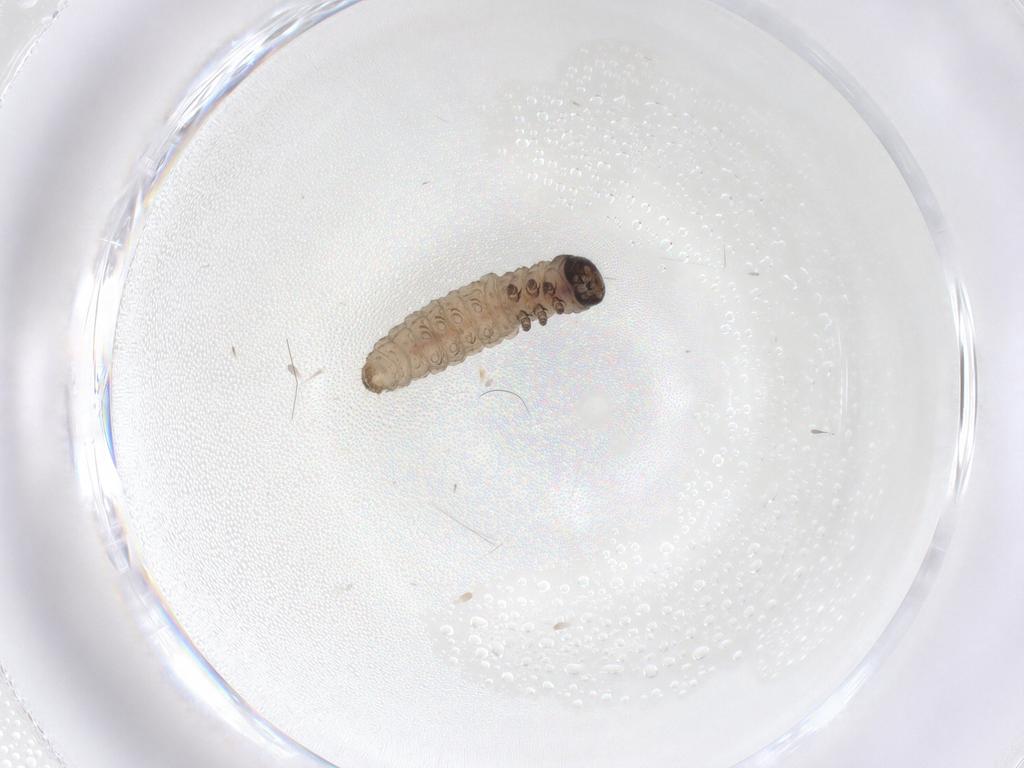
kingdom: Animalia
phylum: Arthropoda
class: Insecta
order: Lepidoptera
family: Tortricidae
